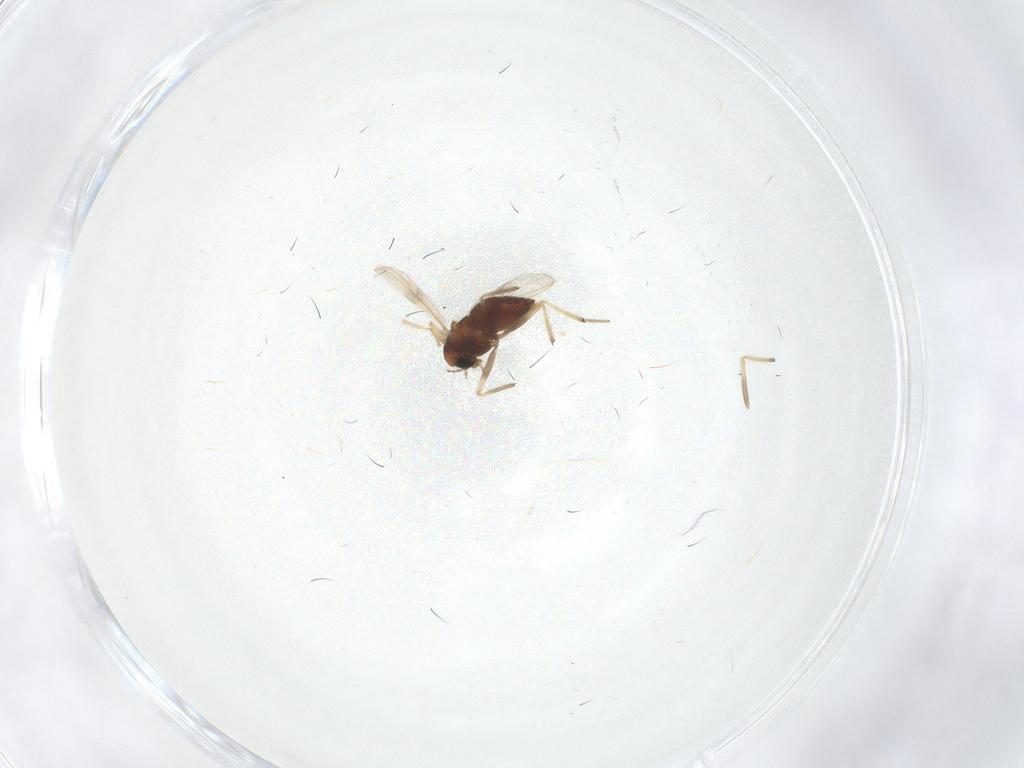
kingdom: Animalia
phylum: Arthropoda
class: Insecta
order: Diptera
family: Chironomidae
